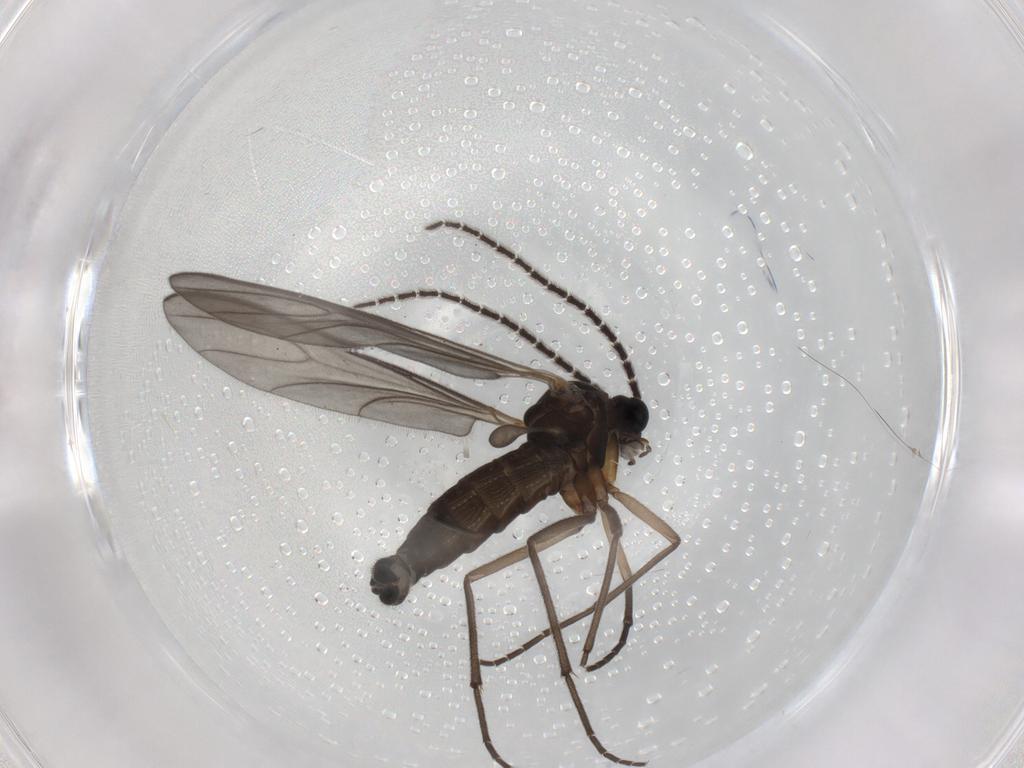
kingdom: Animalia
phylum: Arthropoda
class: Insecta
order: Diptera
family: Sciaridae
